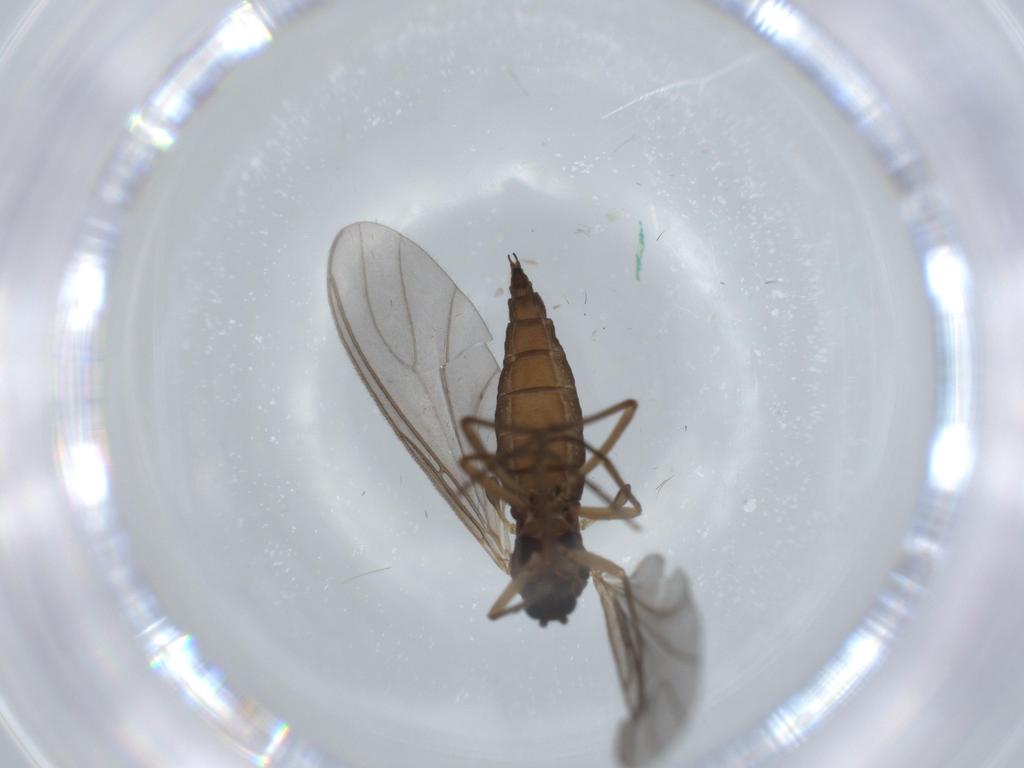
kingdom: Animalia
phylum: Arthropoda
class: Insecta
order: Diptera
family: Sciaridae
